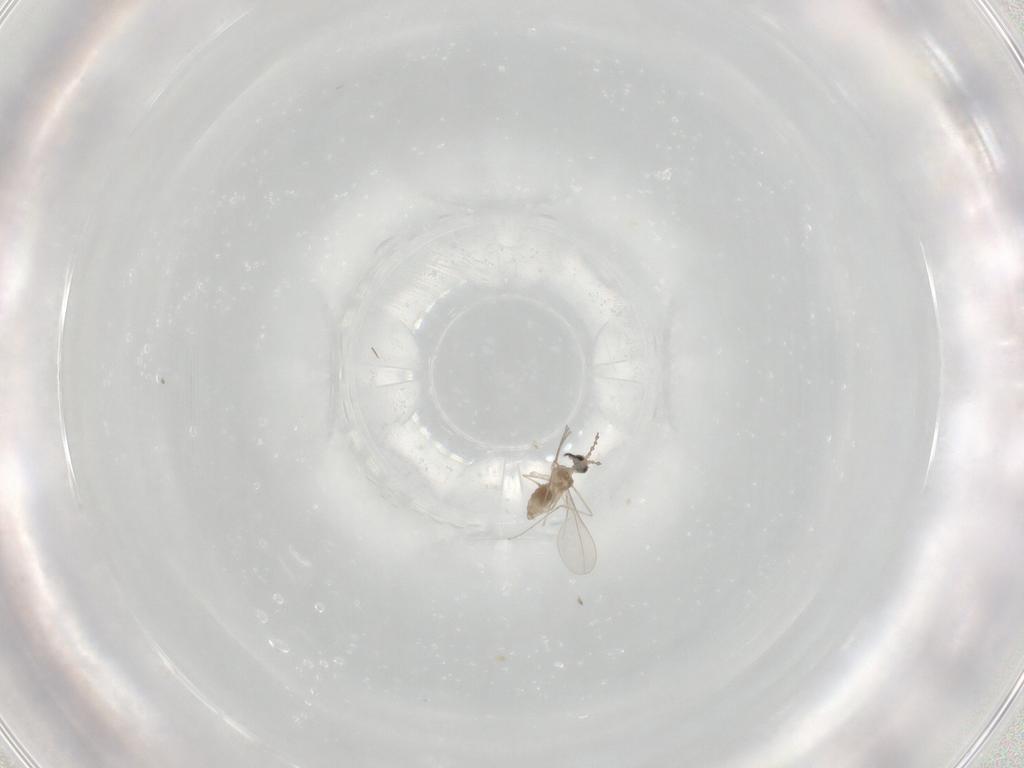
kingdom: Animalia
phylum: Arthropoda
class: Insecta
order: Diptera
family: Cecidomyiidae
